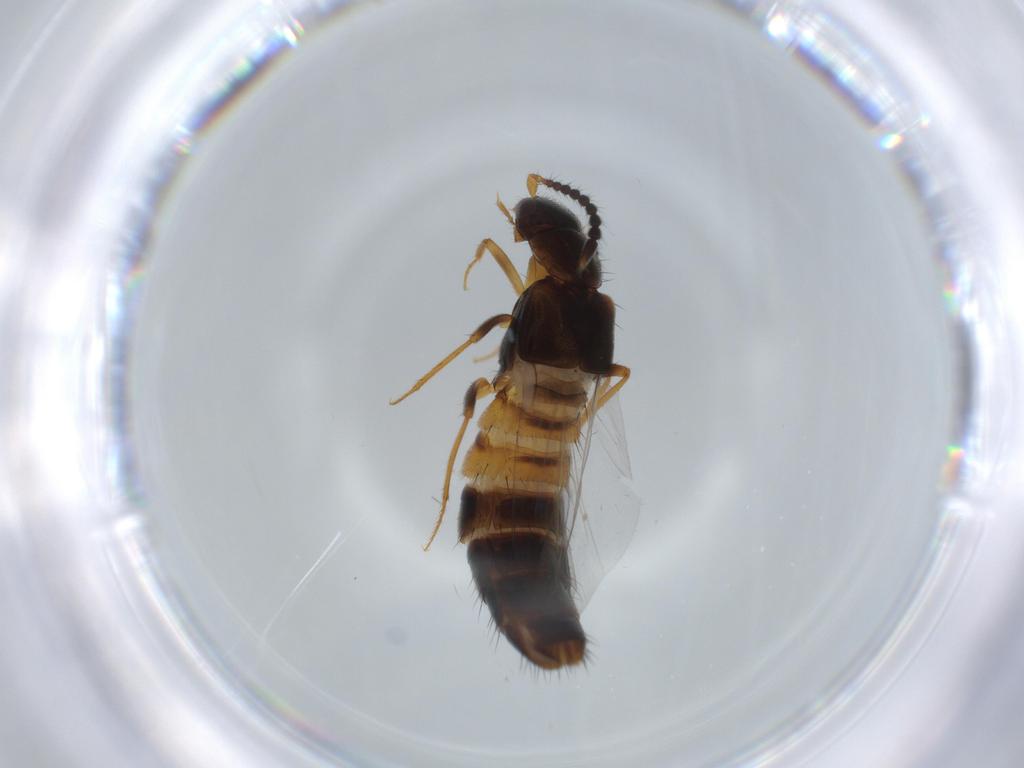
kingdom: Animalia
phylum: Arthropoda
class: Insecta
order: Coleoptera
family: Staphylinidae
